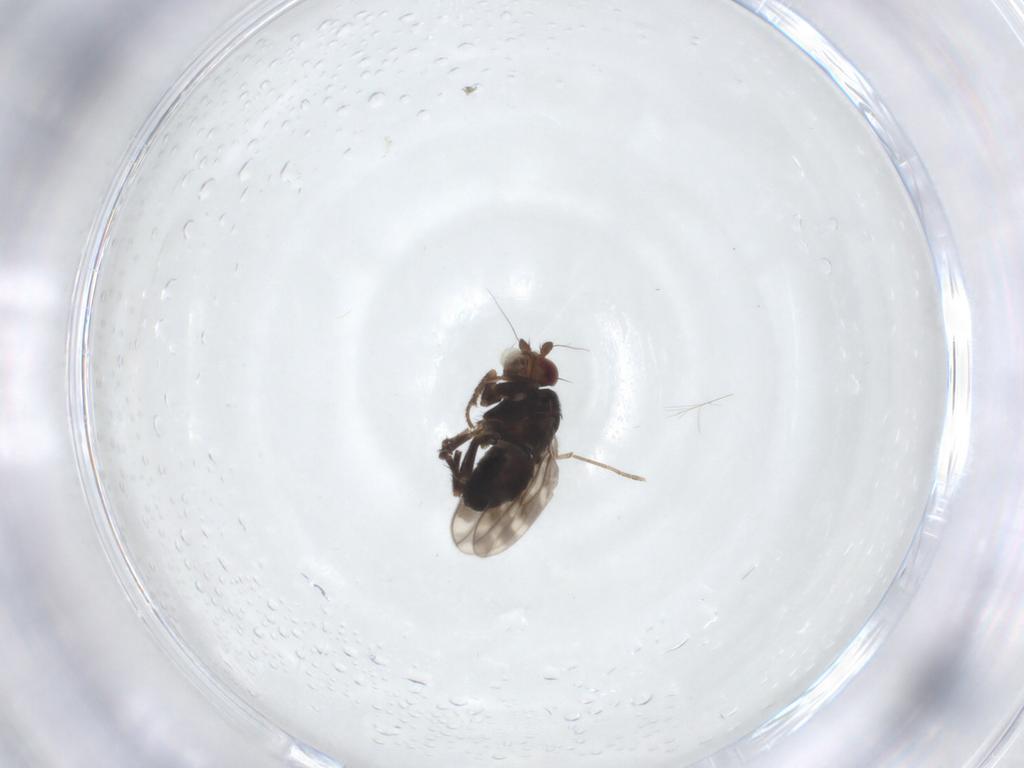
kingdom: Animalia
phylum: Arthropoda
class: Insecta
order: Diptera
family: Sphaeroceridae
